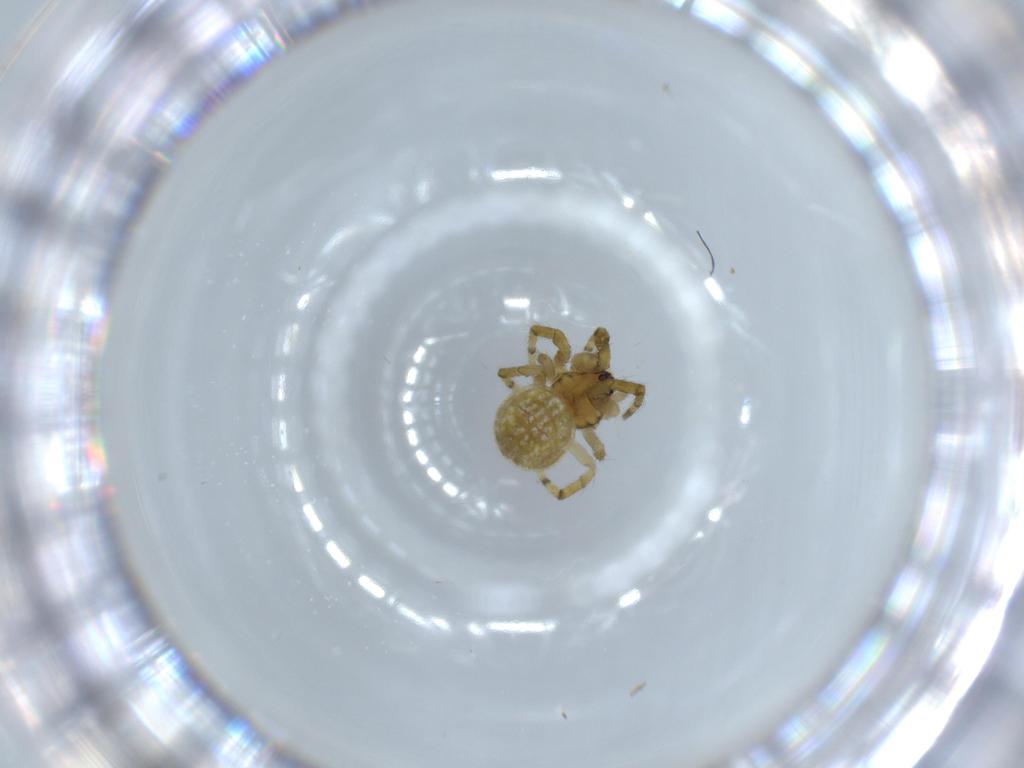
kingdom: Animalia
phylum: Arthropoda
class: Arachnida
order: Araneae
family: Araneidae
